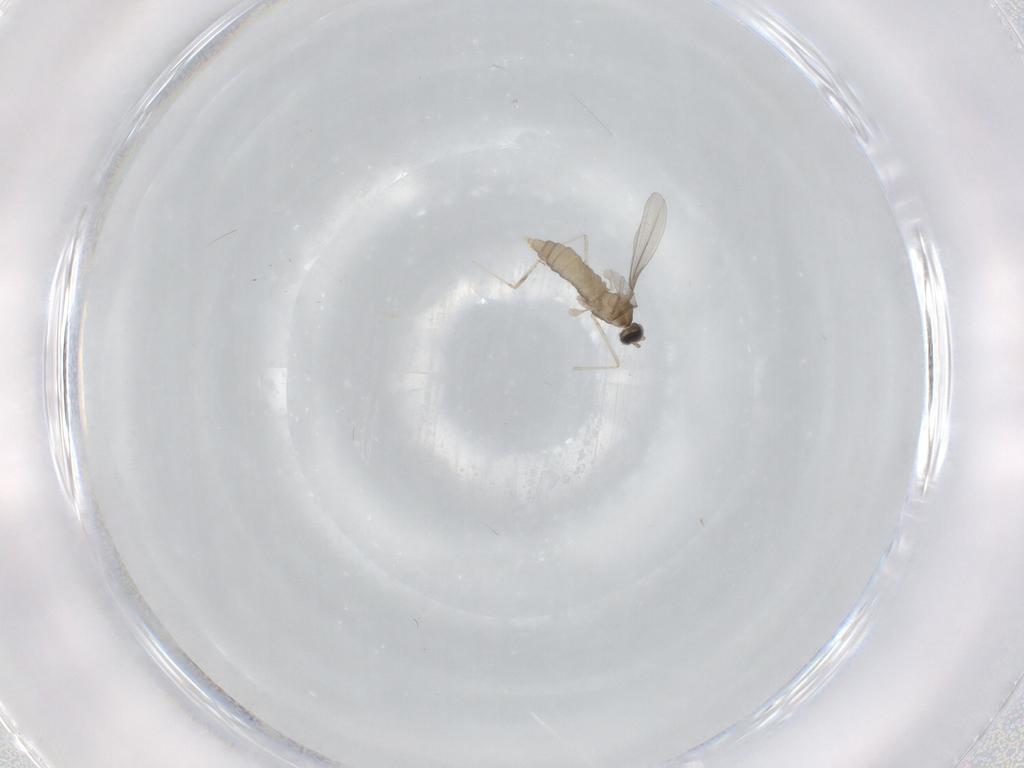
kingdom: Animalia
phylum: Arthropoda
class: Insecta
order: Diptera
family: Cecidomyiidae
